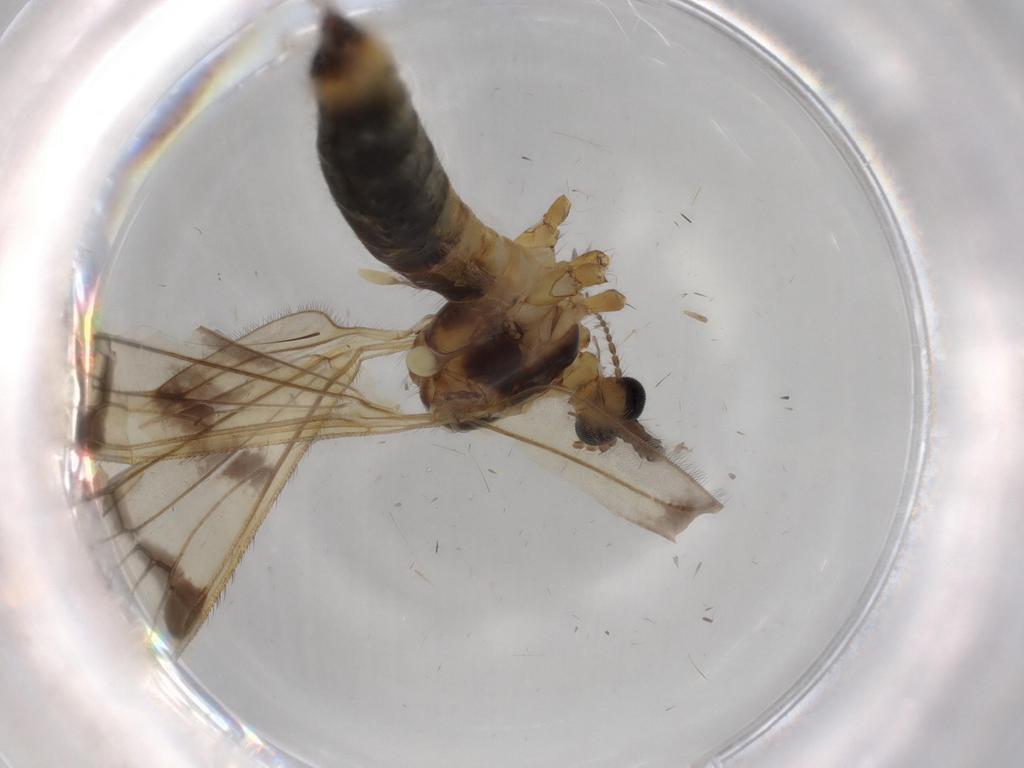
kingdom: Animalia
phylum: Arthropoda
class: Insecta
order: Diptera
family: Limoniidae
